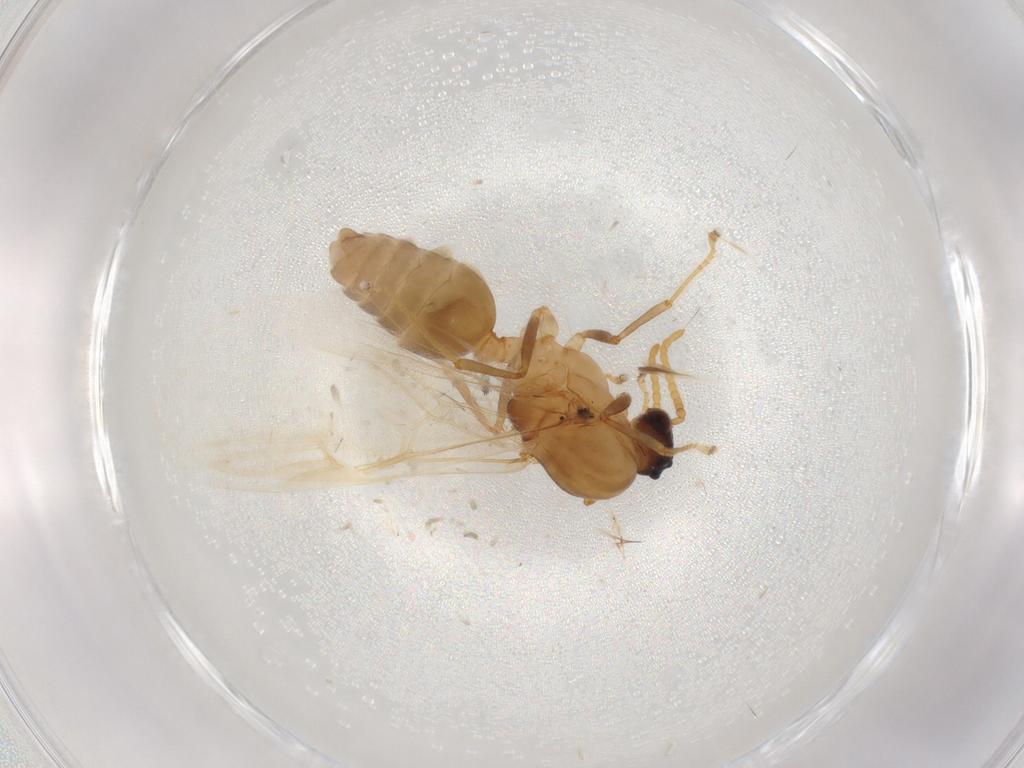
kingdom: Animalia
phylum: Arthropoda
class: Insecta
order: Hymenoptera
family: Formicidae
